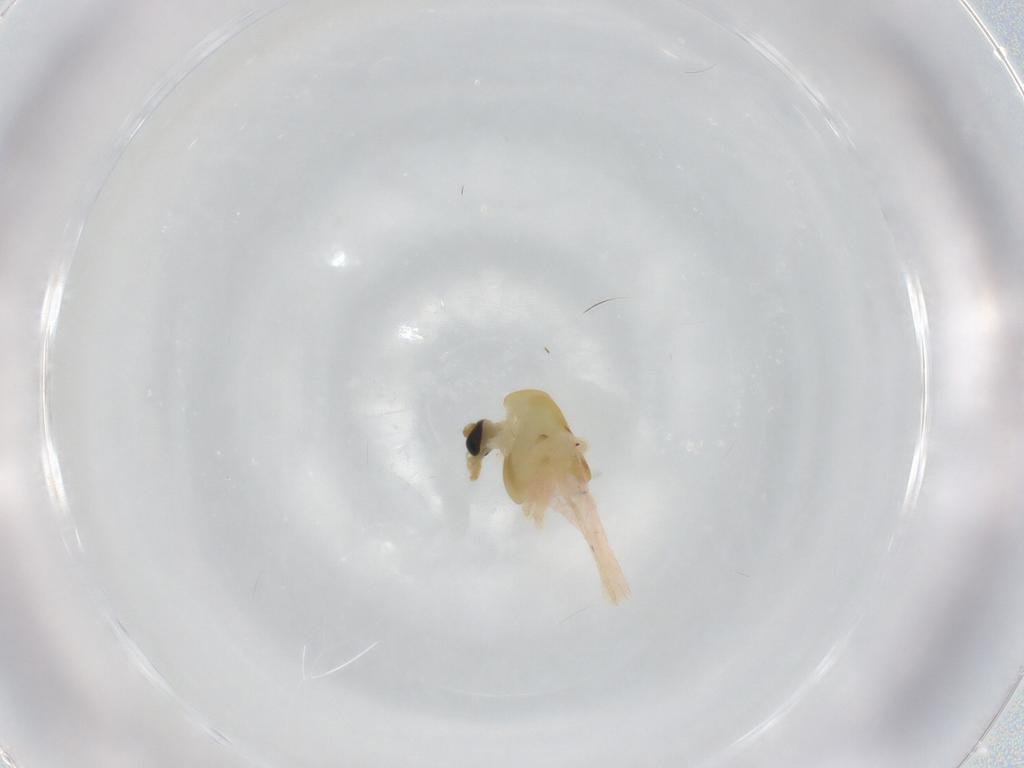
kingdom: Animalia
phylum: Arthropoda
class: Insecta
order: Diptera
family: Chironomidae
